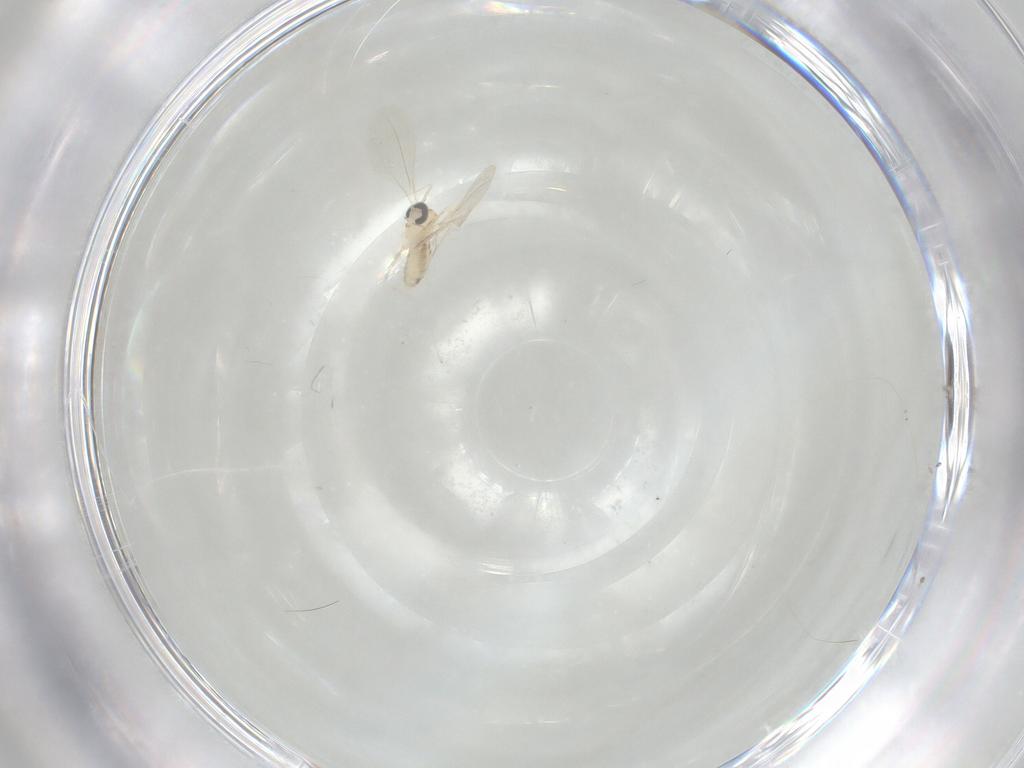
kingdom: Animalia
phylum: Arthropoda
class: Insecta
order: Diptera
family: Cecidomyiidae
